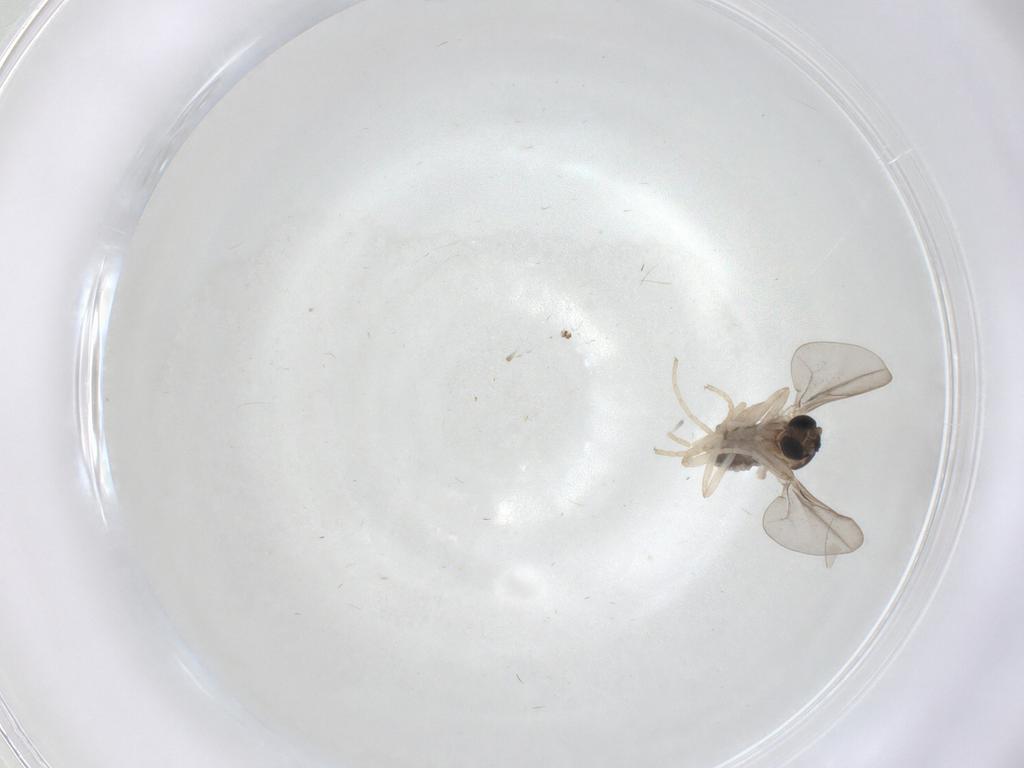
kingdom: Animalia
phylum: Arthropoda
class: Insecta
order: Diptera
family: Cecidomyiidae
